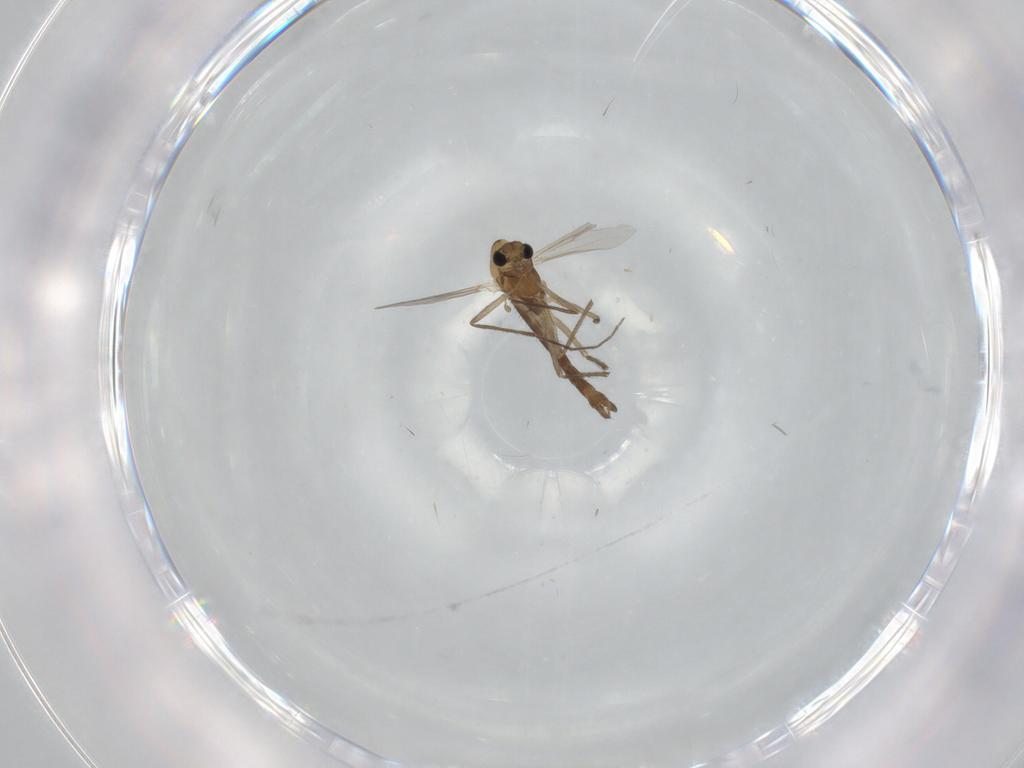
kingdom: Animalia
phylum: Arthropoda
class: Insecta
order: Diptera
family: Chironomidae
